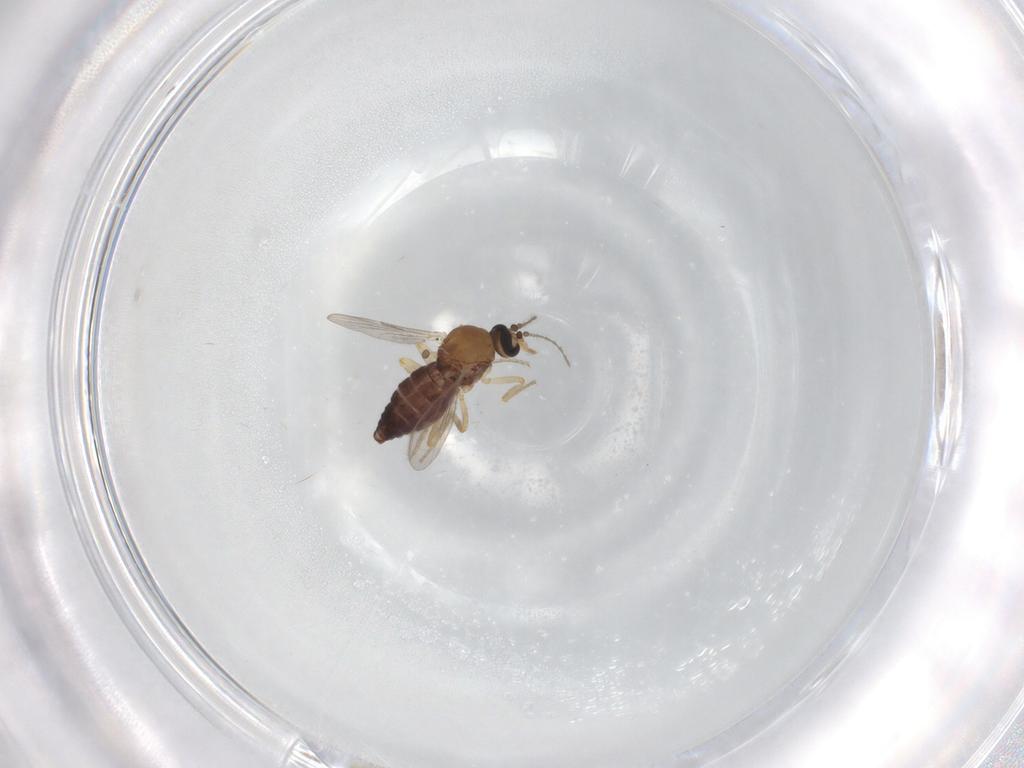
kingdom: Animalia
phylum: Arthropoda
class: Insecta
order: Diptera
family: Ceratopogonidae
